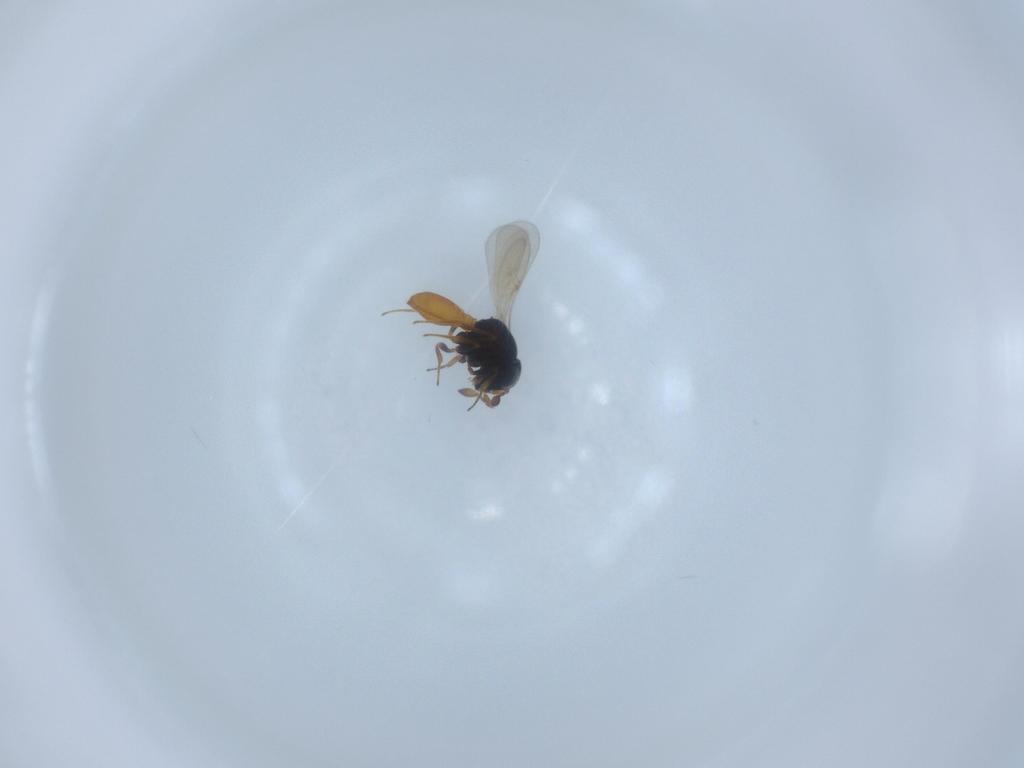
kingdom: Animalia
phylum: Arthropoda
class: Insecta
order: Hymenoptera
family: Scelionidae
